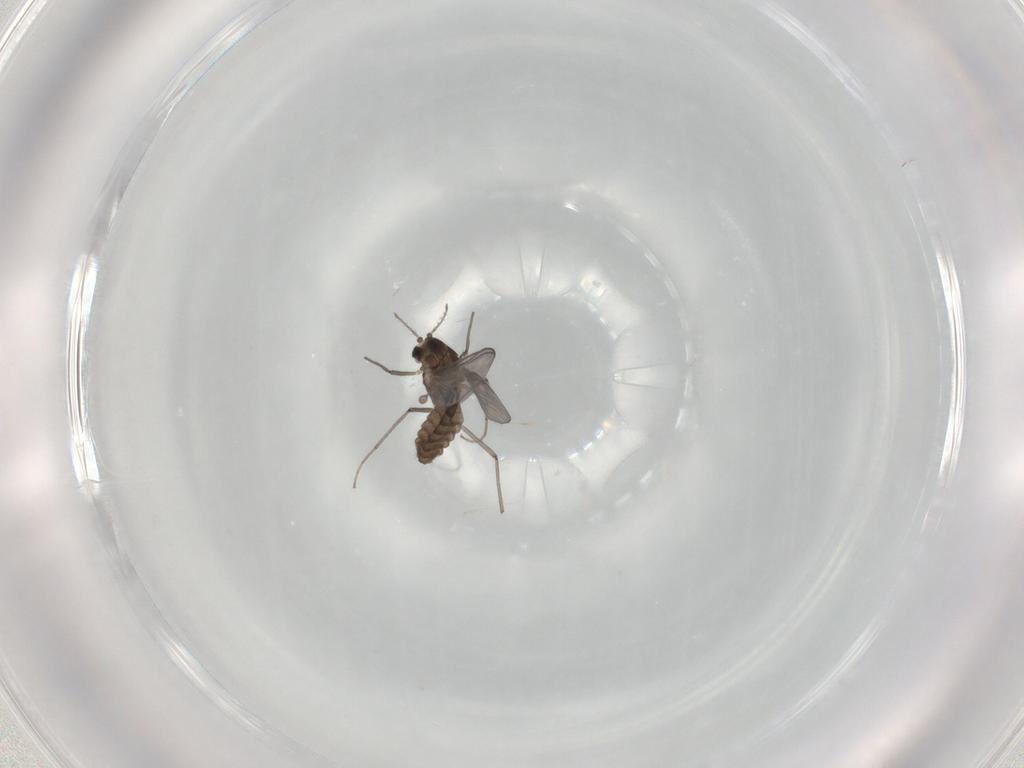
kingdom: Animalia
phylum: Arthropoda
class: Insecta
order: Diptera
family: Chironomidae
